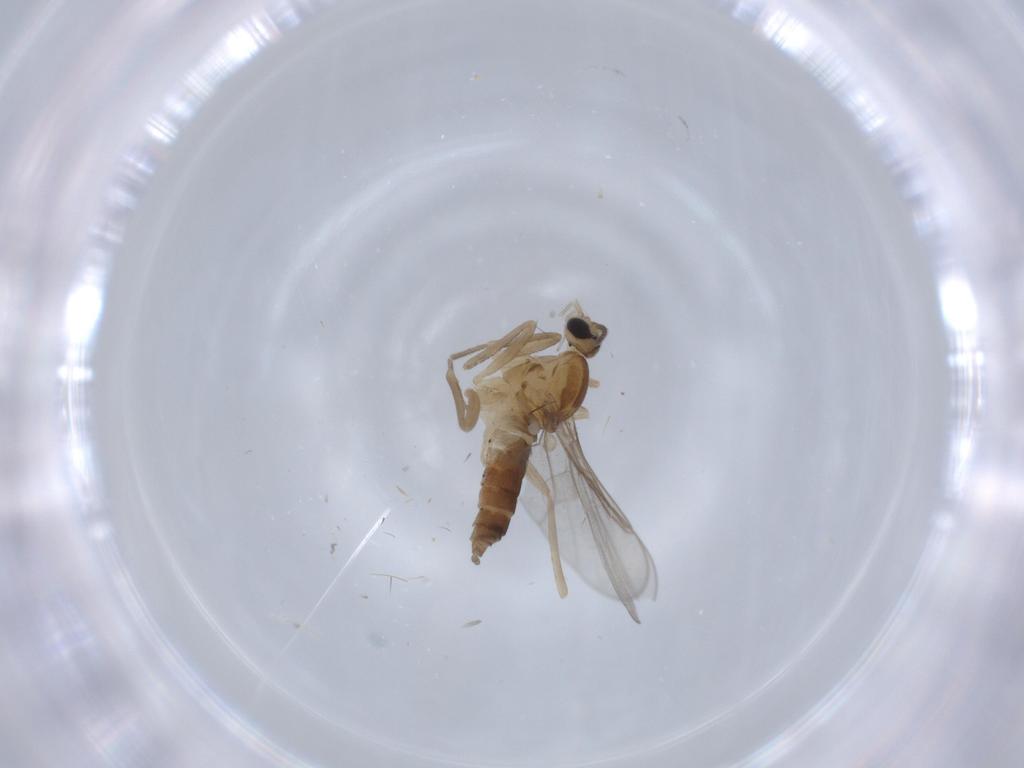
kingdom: Animalia
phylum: Arthropoda
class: Insecta
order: Diptera
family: Cecidomyiidae
